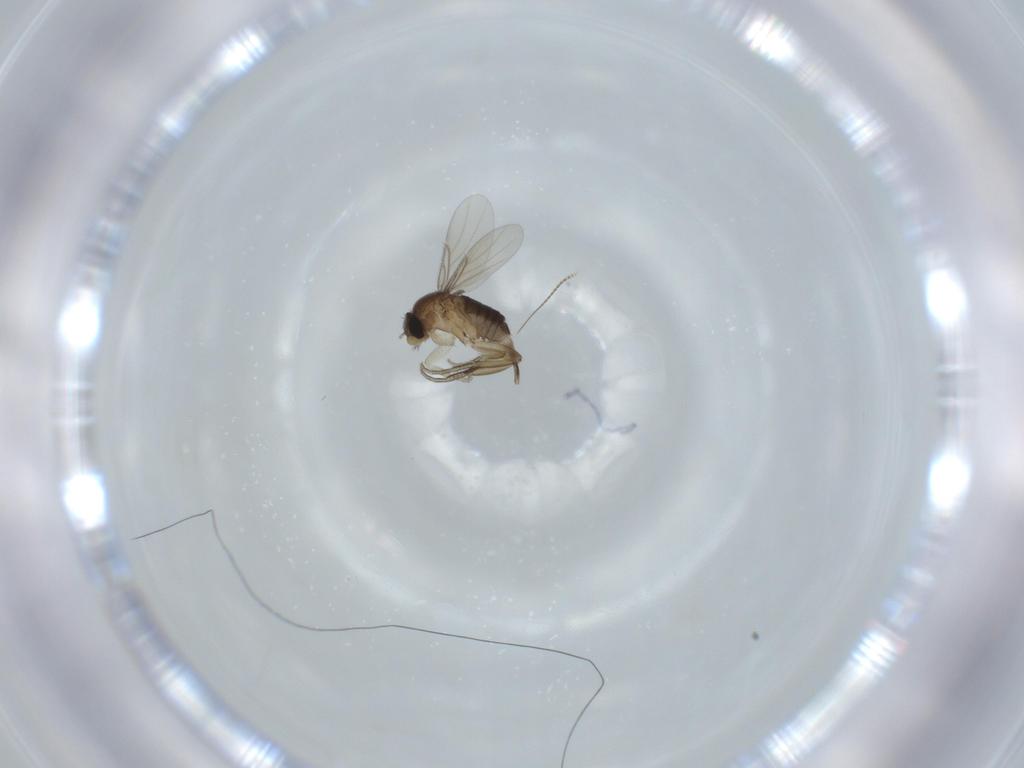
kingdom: Animalia
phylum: Arthropoda
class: Insecta
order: Diptera
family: Phoridae
